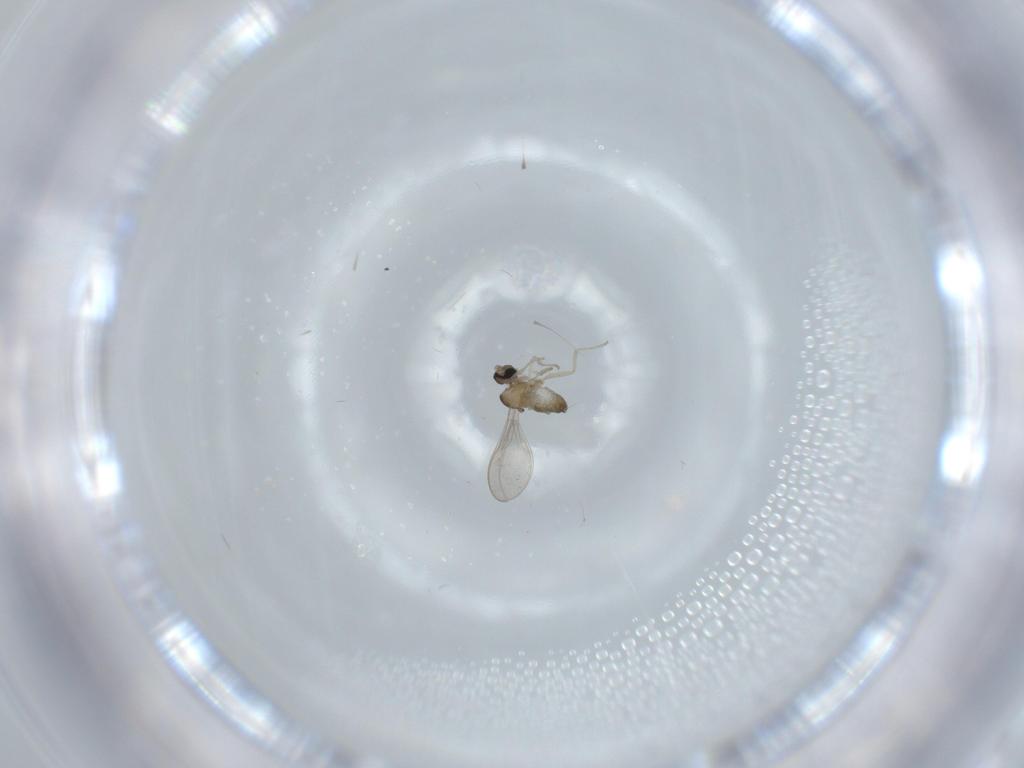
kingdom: Animalia
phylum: Arthropoda
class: Insecta
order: Diptera
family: Cecidomyiidae
